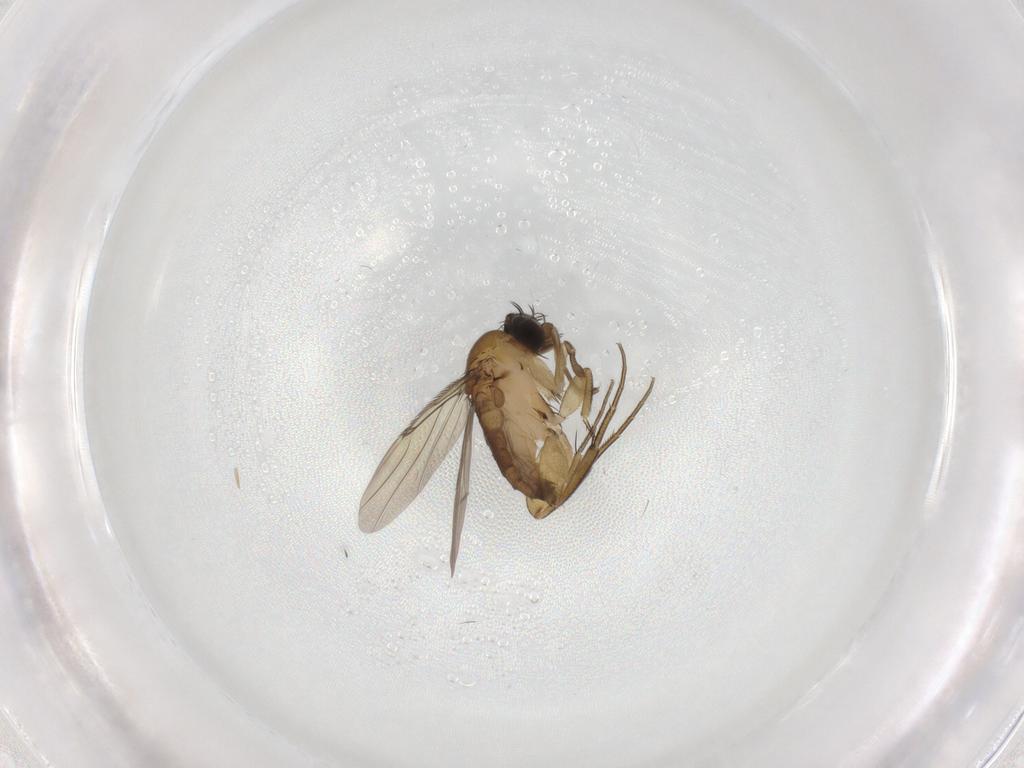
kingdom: Animalia
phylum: Arthropoda
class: Insecta
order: Diptera
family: Phoridae
